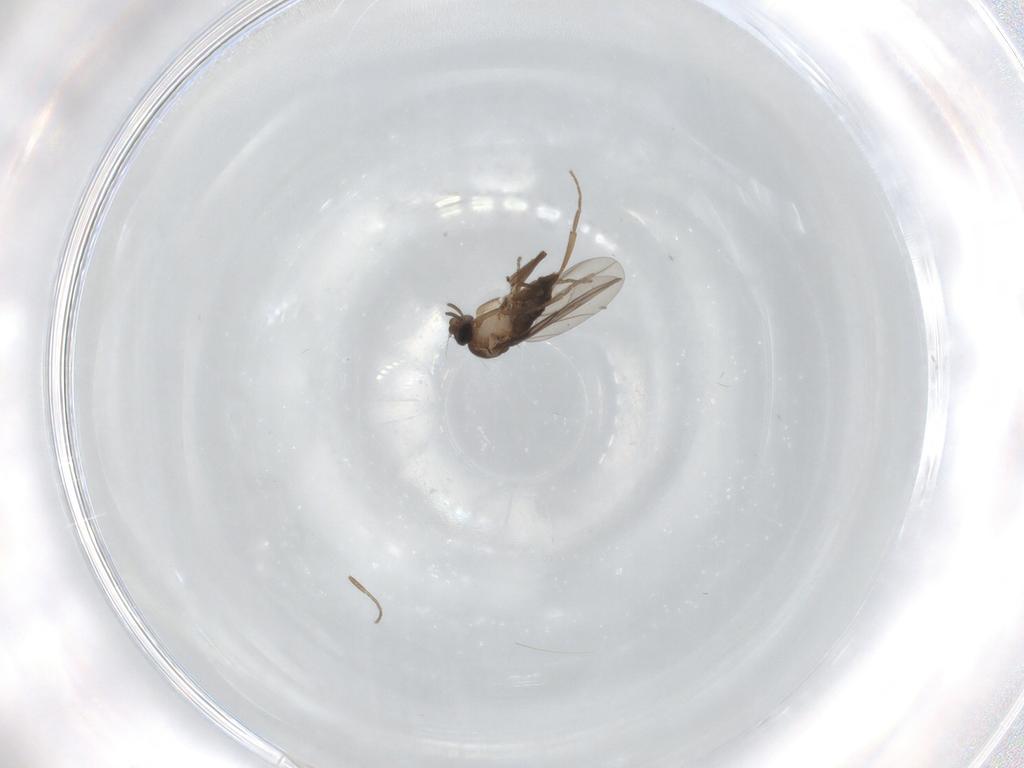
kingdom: Animalia
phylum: Arthropoda
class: Insecta
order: Diptera
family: Cecidomyiidae
